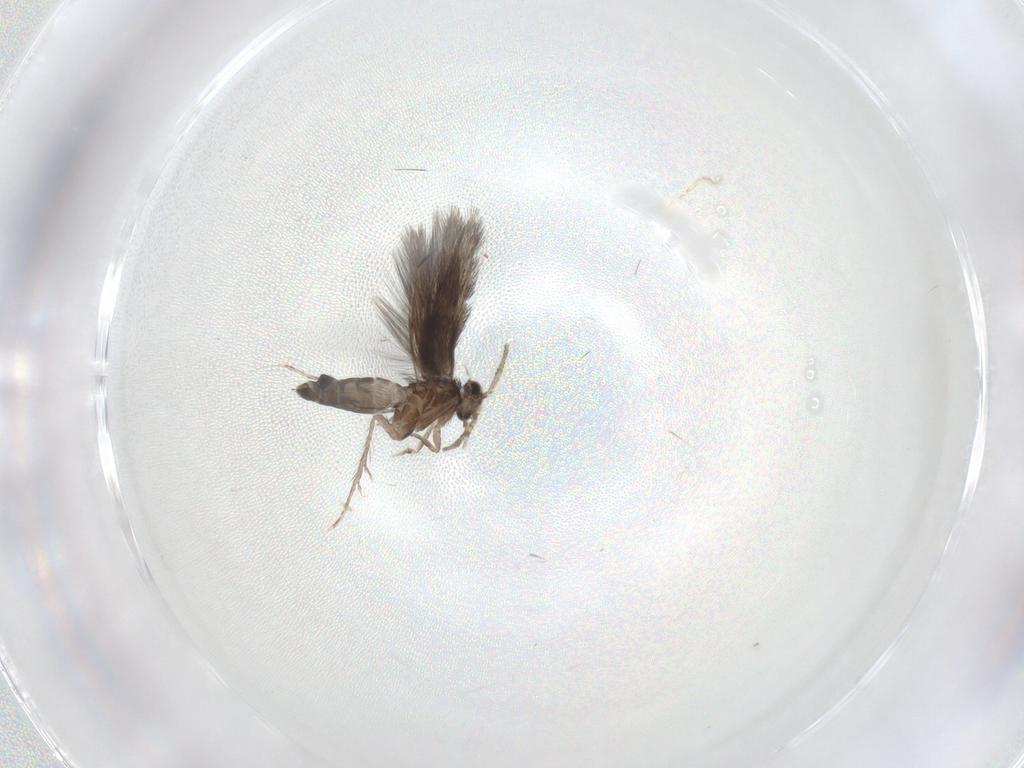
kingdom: Animalia
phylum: Arthropoda
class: Insecta
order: Trichoptera
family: Hydroptilidae
